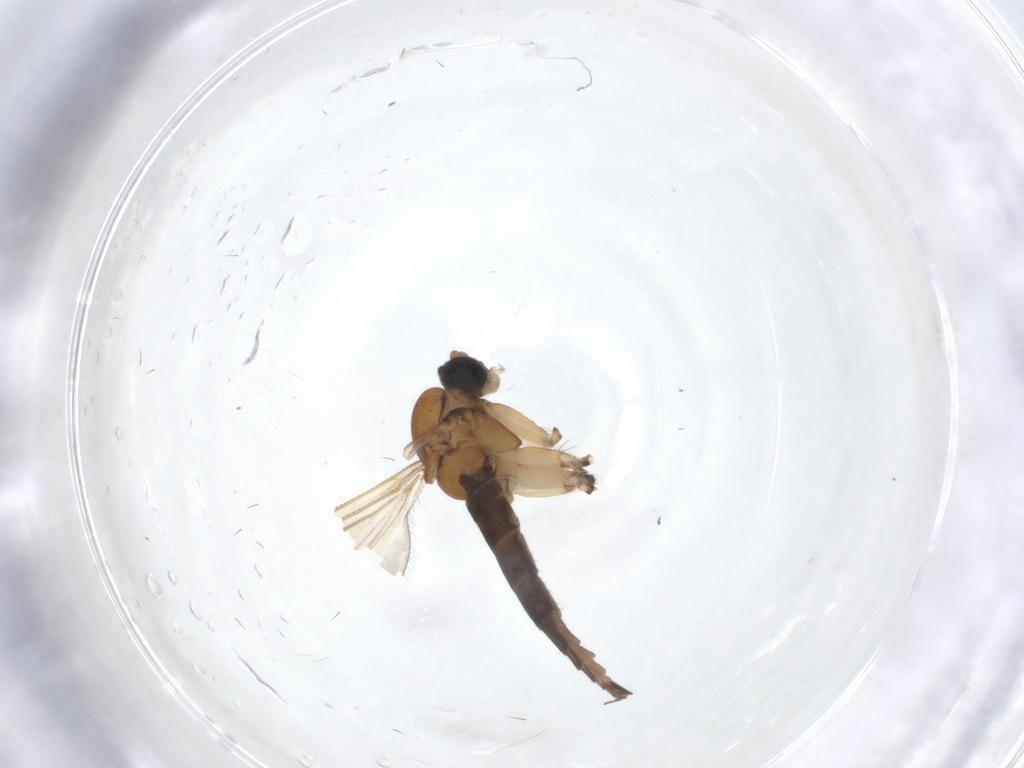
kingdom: Animalia
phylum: Arthropoda
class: Insecta
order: Diptera
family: Sciaridae
